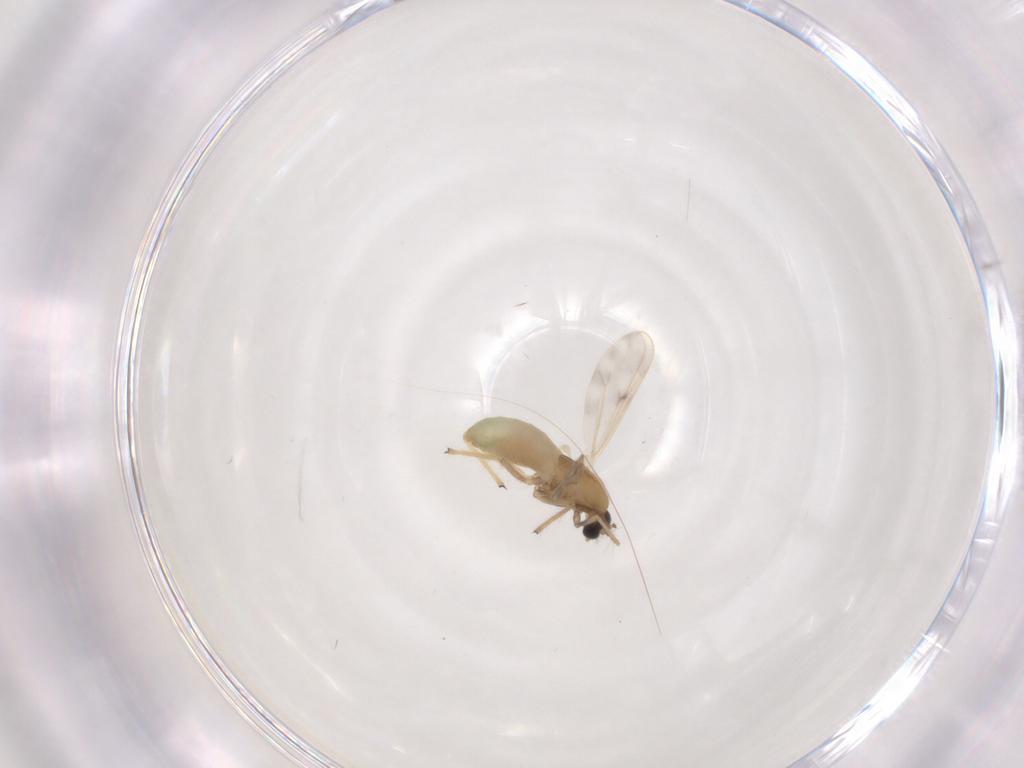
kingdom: Animalia
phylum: Arthropoda
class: Insecta
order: Diptera
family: Chironomidae
